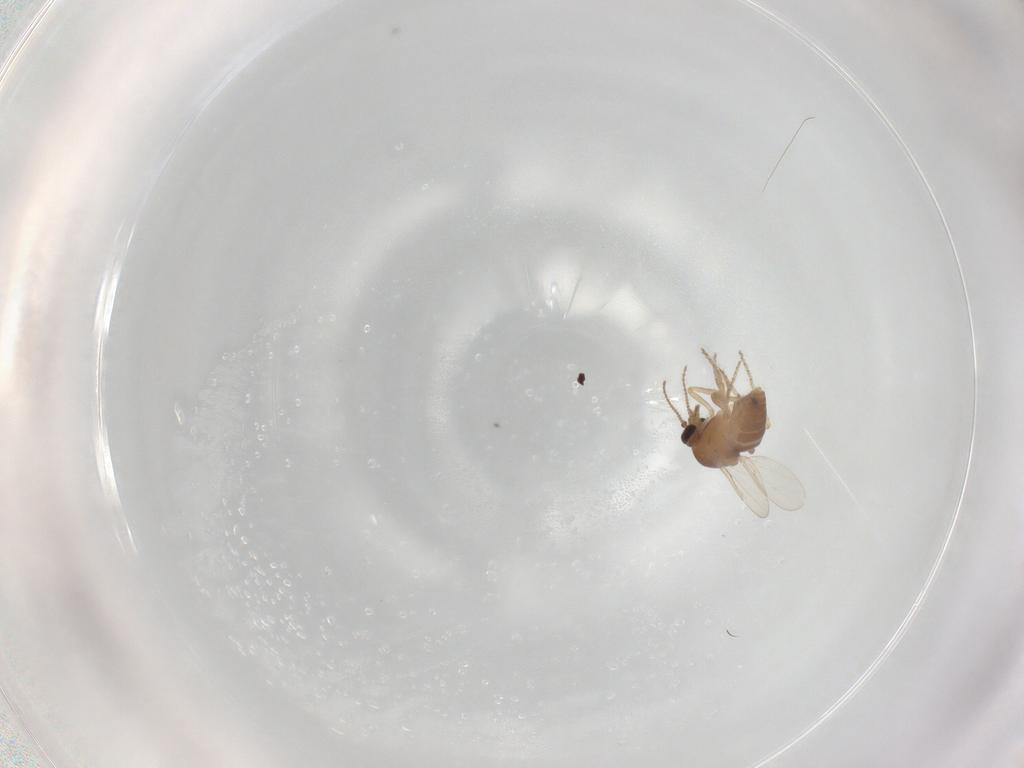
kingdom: Animalia
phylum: Arthropoda
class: Insecta
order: Diptera
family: Ceratopogonidae
